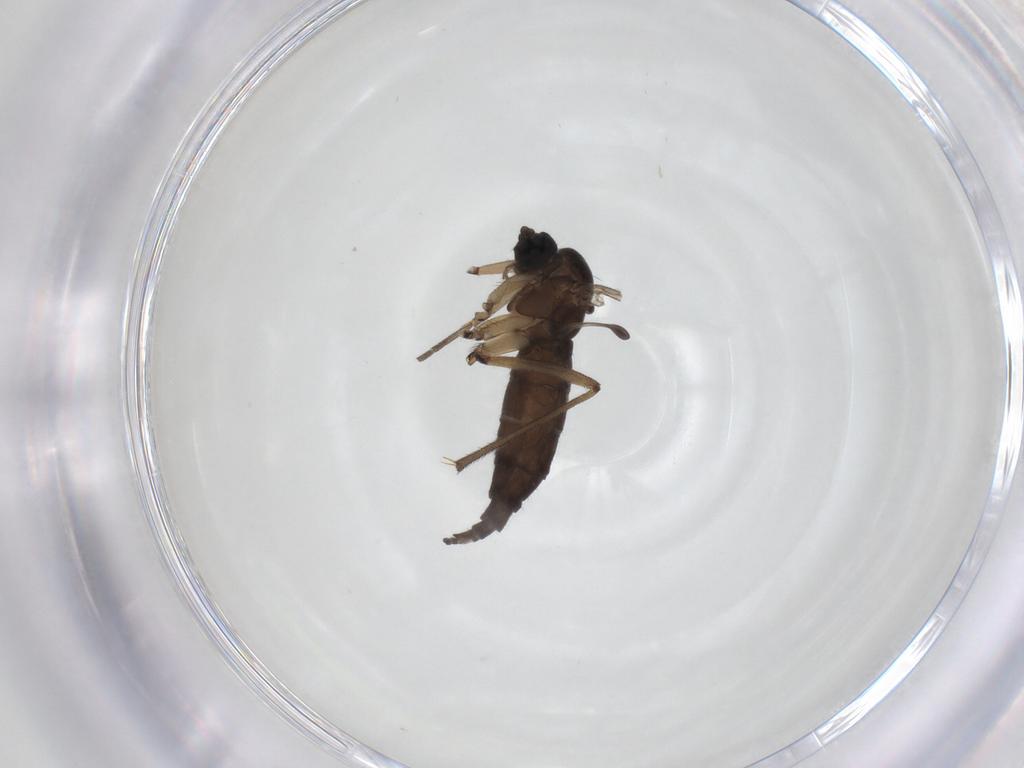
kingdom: Animalia
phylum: Arthropoda
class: Insecta
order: Diptera
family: Sciaridae
